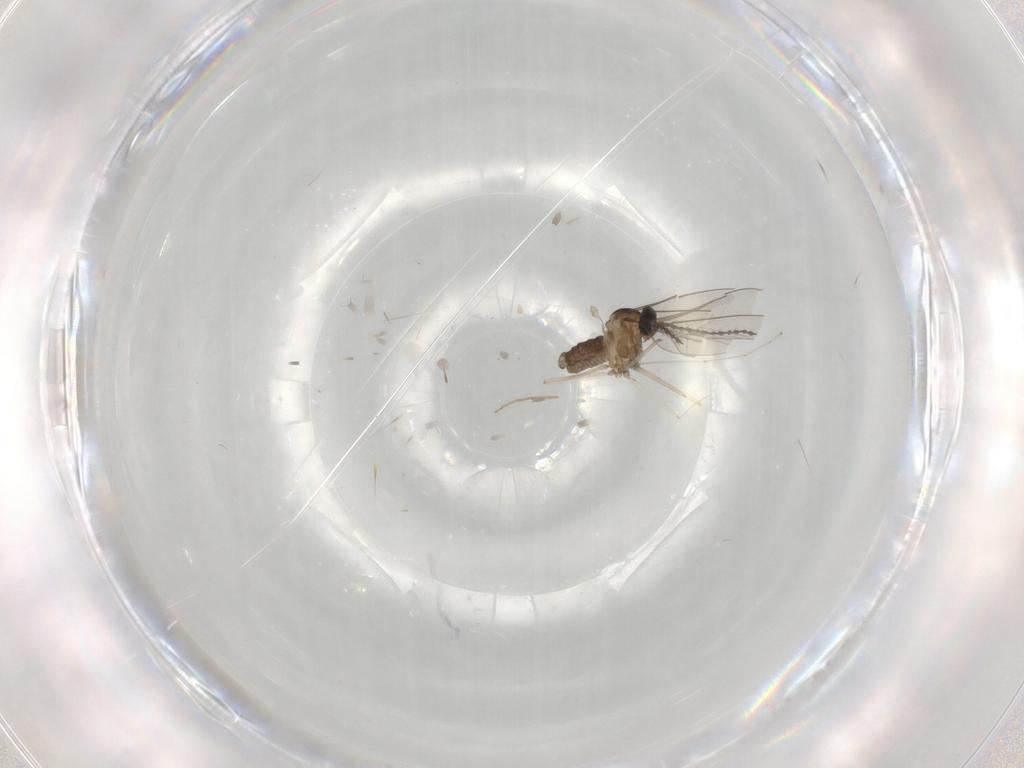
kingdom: Animalia
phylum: Arthropoda
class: Insecta
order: Diptera
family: Cecidomyiidae
